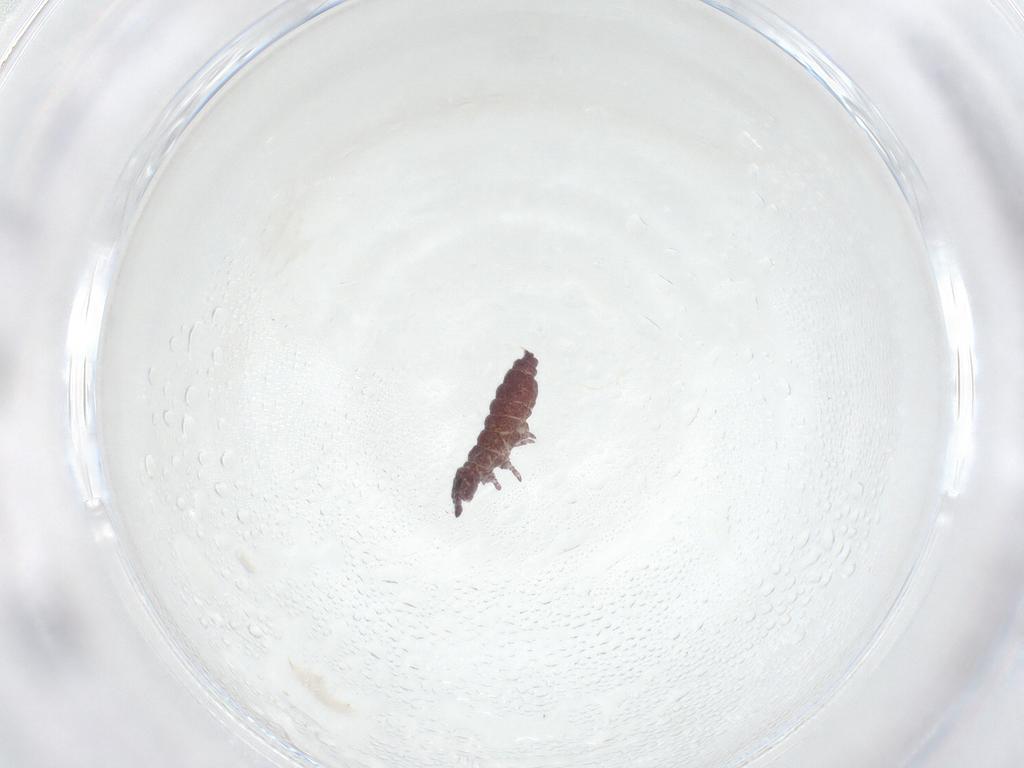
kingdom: Animalia
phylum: Arthropoda
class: Collembola
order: Poduromorpha
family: Hypogastruridae
